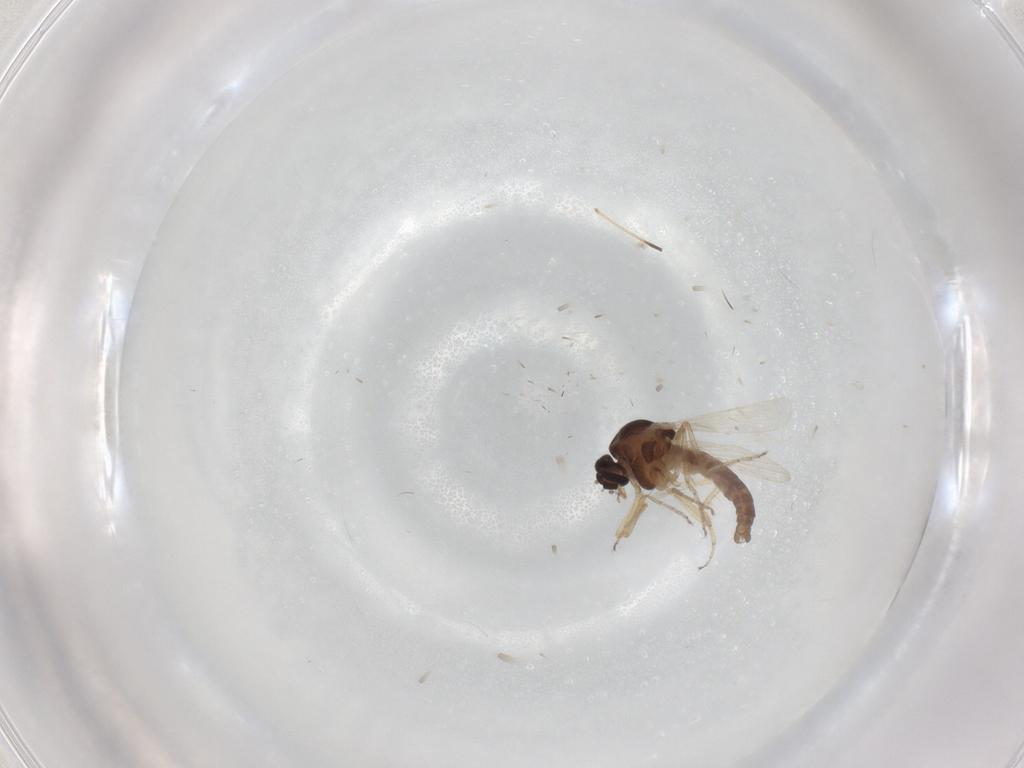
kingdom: Animalia
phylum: Arthropoda
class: Insecta
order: Diptera
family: Ceratopogonidae
